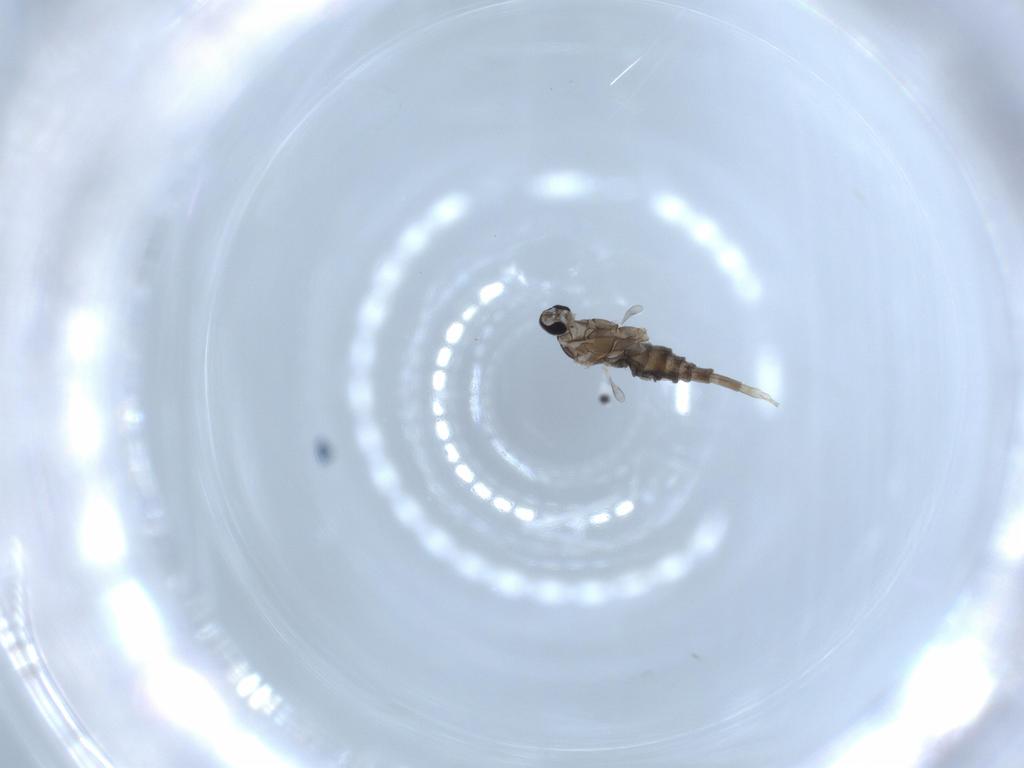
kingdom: Animalia
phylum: Arthropoda
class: Insecta
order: Diptera
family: Cecidomyiidae
